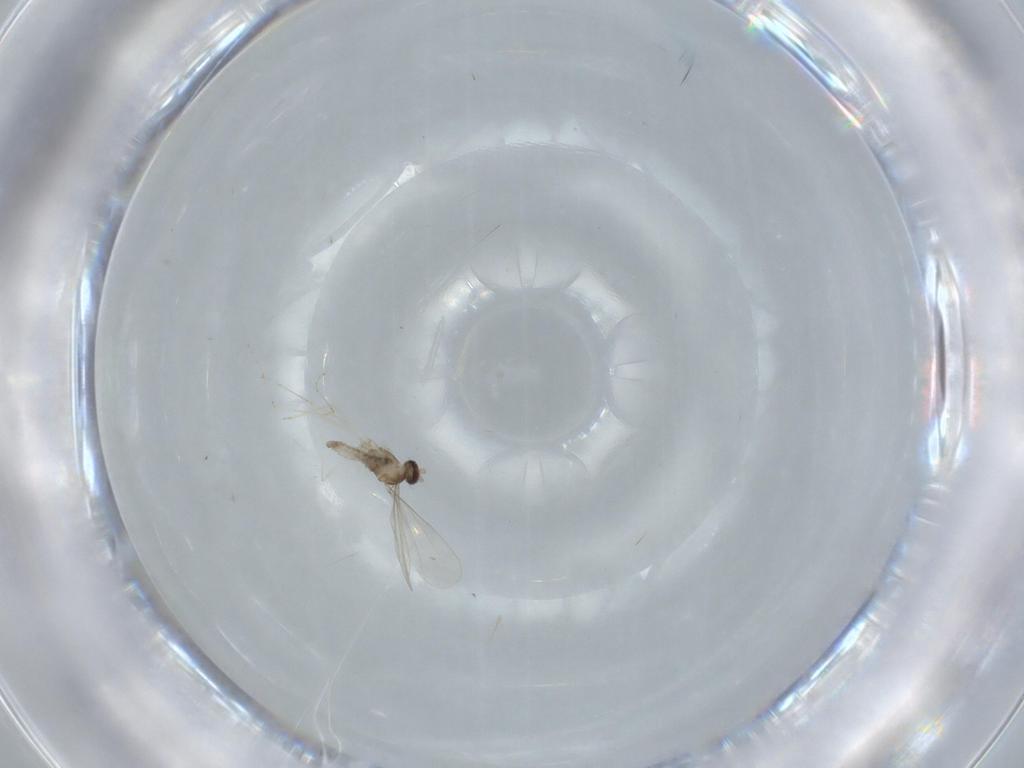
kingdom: Animalia
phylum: Arthropoda
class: Insecta
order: Diptera
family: Cecidomyiidae
